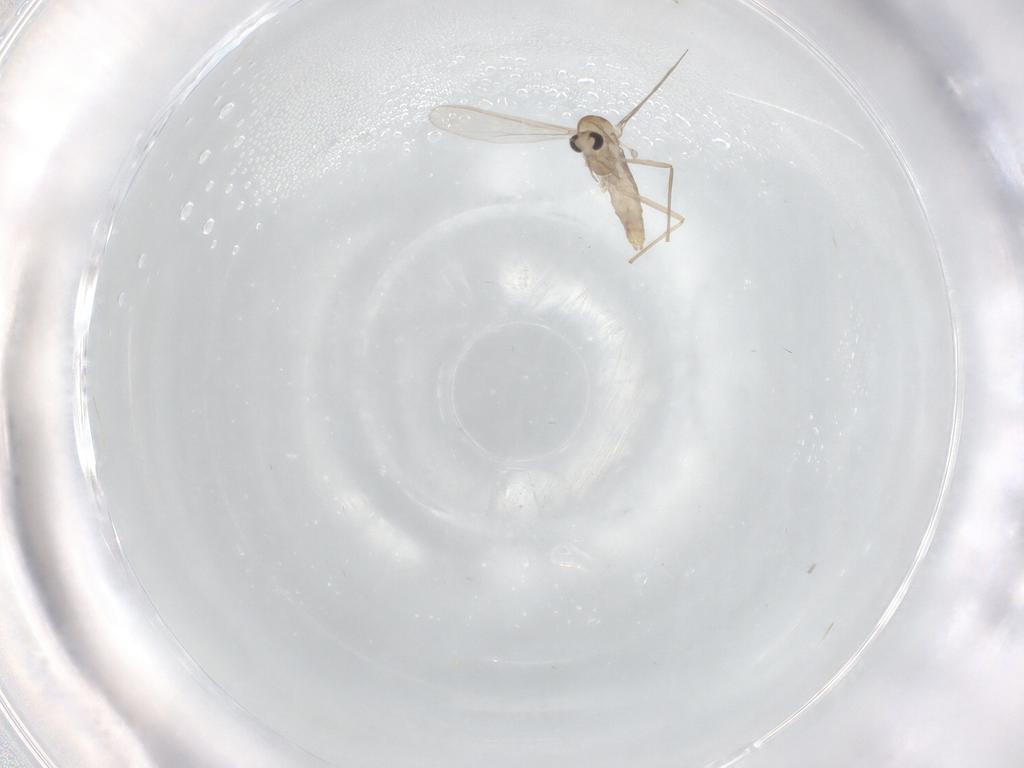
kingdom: Animalia
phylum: Arthropoda
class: Insecta
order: Diptera
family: Chironomidae
